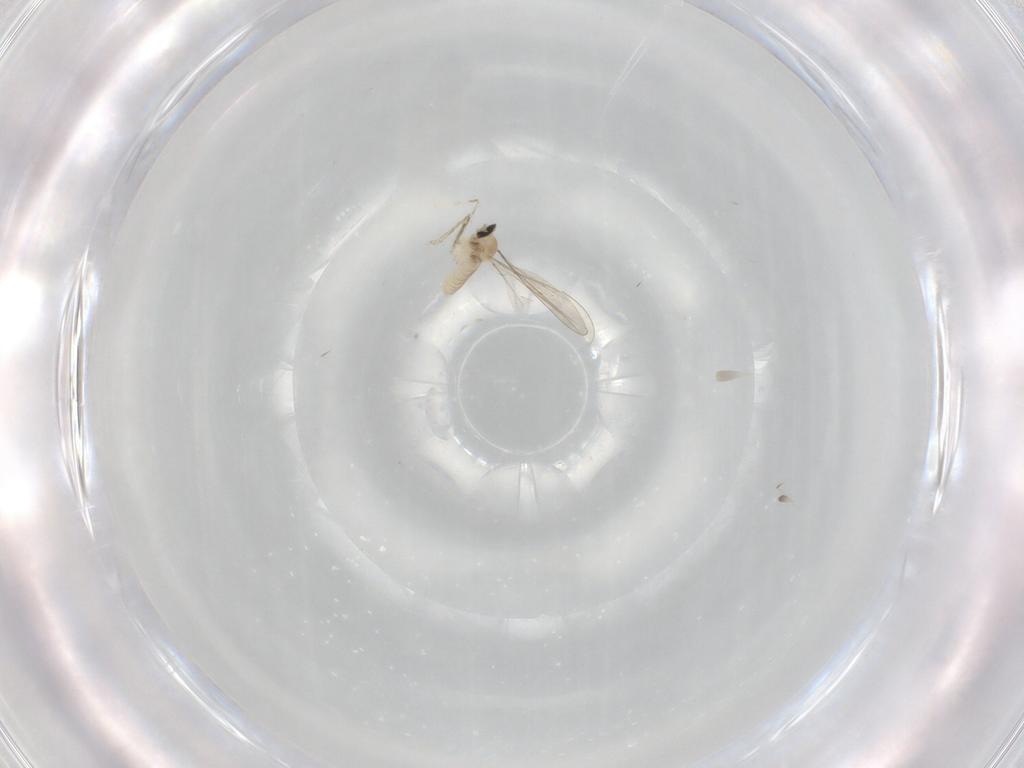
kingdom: Animalia
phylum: Arthropoda
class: Insecta
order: Diptera
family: Cecidomyiidae
